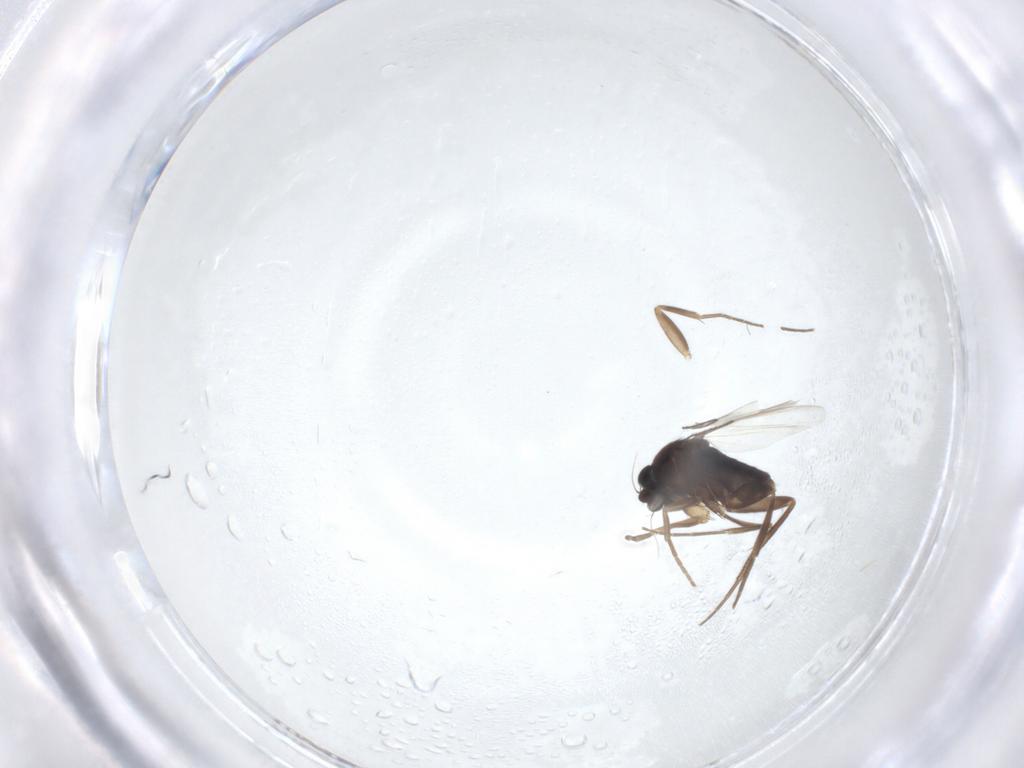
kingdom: Animalia
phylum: Arthropoda
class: Insecta
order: Diptera
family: Phoridae
